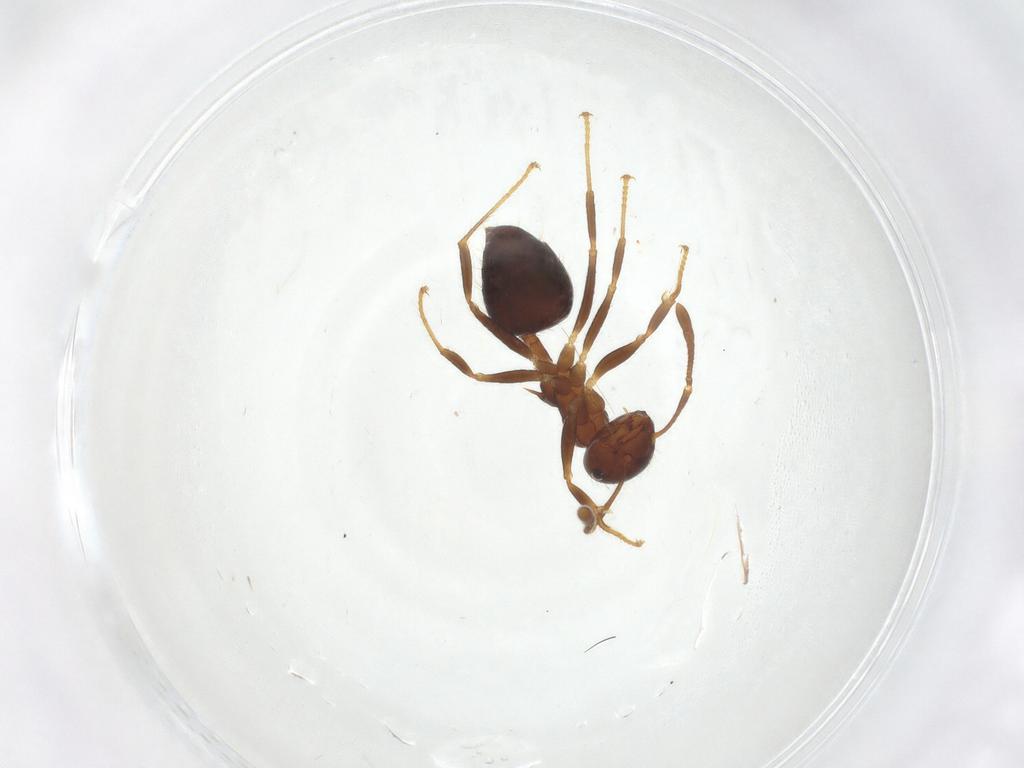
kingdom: Animalia
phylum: Arthropoda
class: Insecta
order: Hymenoptera
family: Formicidae
